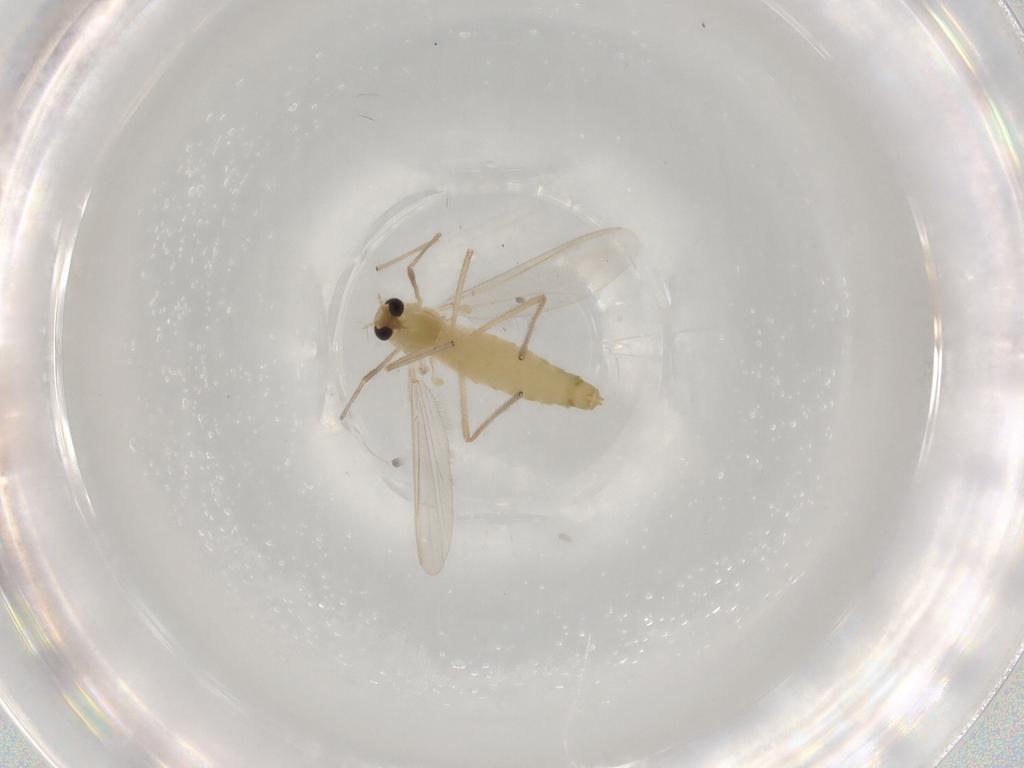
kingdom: Animalia
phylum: Arthropoda
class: Insecta
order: Diptera
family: Chironomidae
